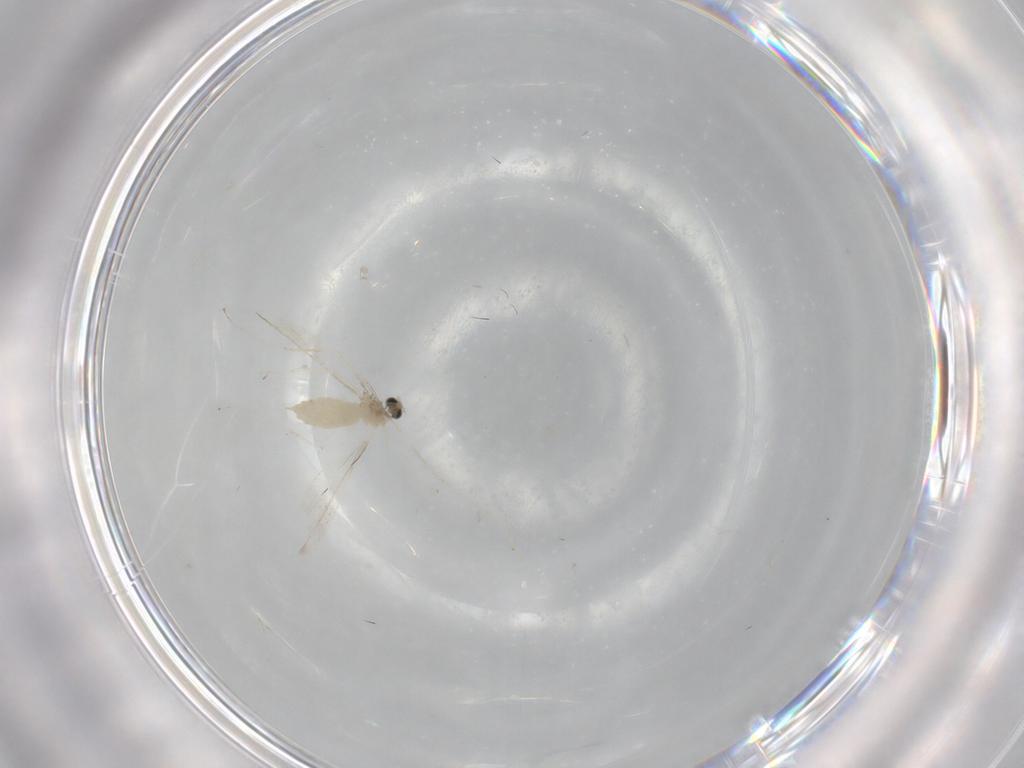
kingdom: Animalia
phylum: Arthropoda
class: Insecta
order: Diptera
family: Cecidomyiidae
